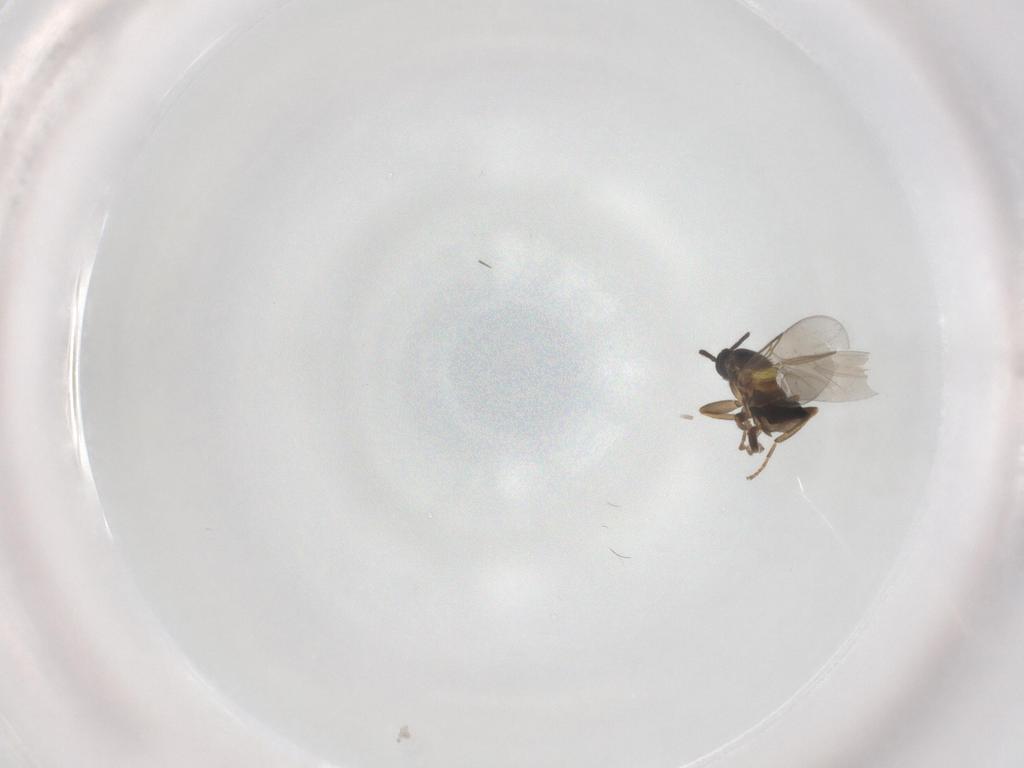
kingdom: Animalia
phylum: Arthropoda
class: Insecta
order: Diptera
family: Scatopsidae
